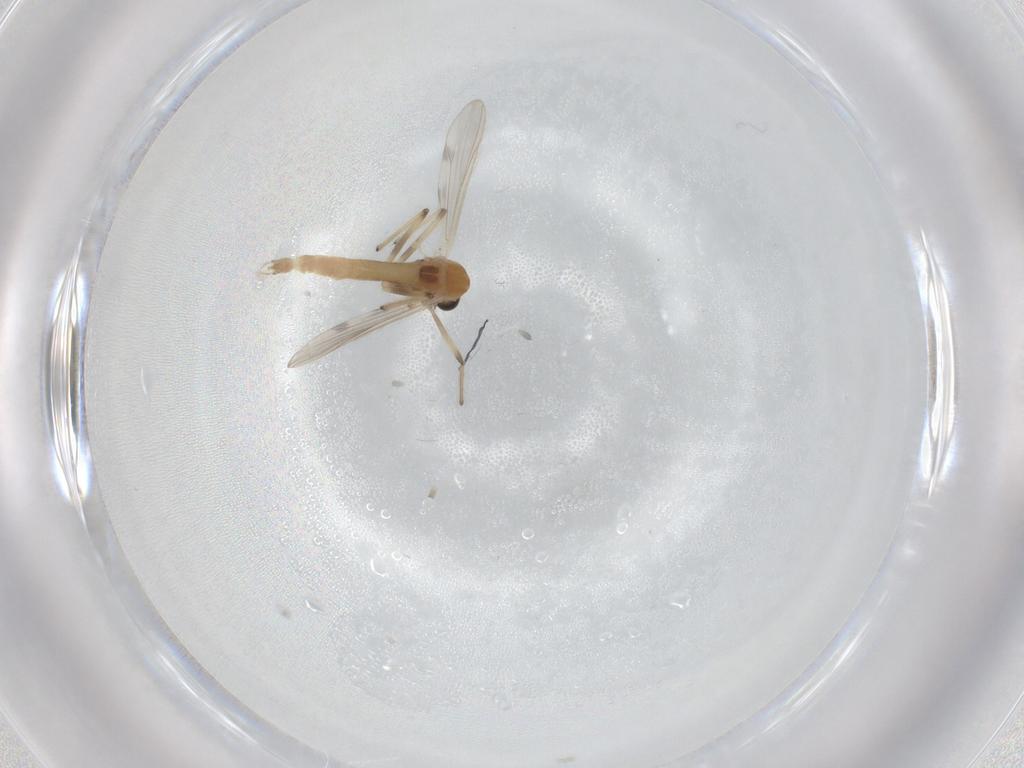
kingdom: Animalia
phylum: Arthropoda
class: Insecta
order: Diptera
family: Chironomidae
